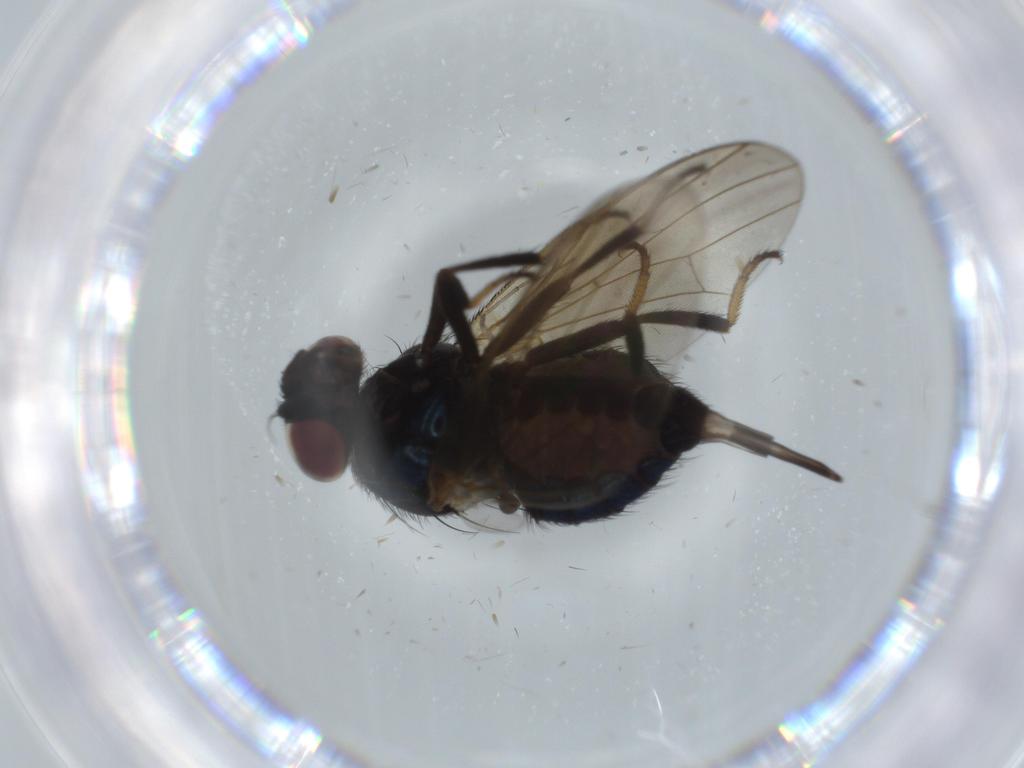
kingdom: Animalia
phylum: Arthropoda
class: Insecta
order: Diptera
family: Lonchaeidae
